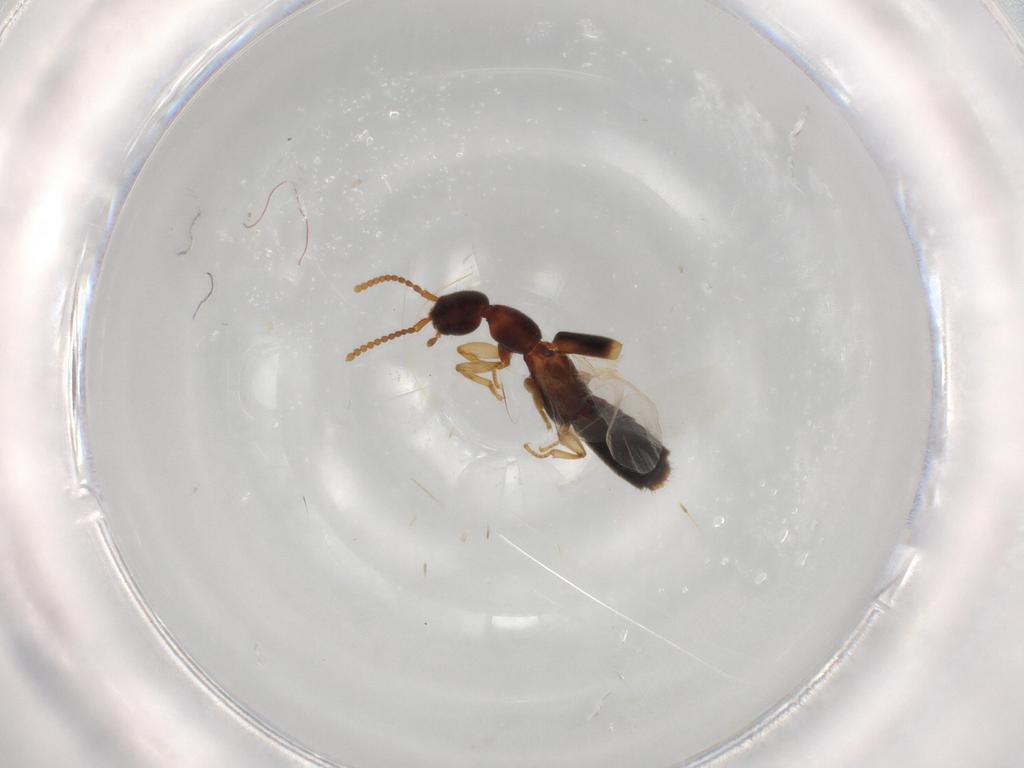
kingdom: Animalia
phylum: Arthropoda
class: Insecta
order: Coleoptera
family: Staphylinidae
